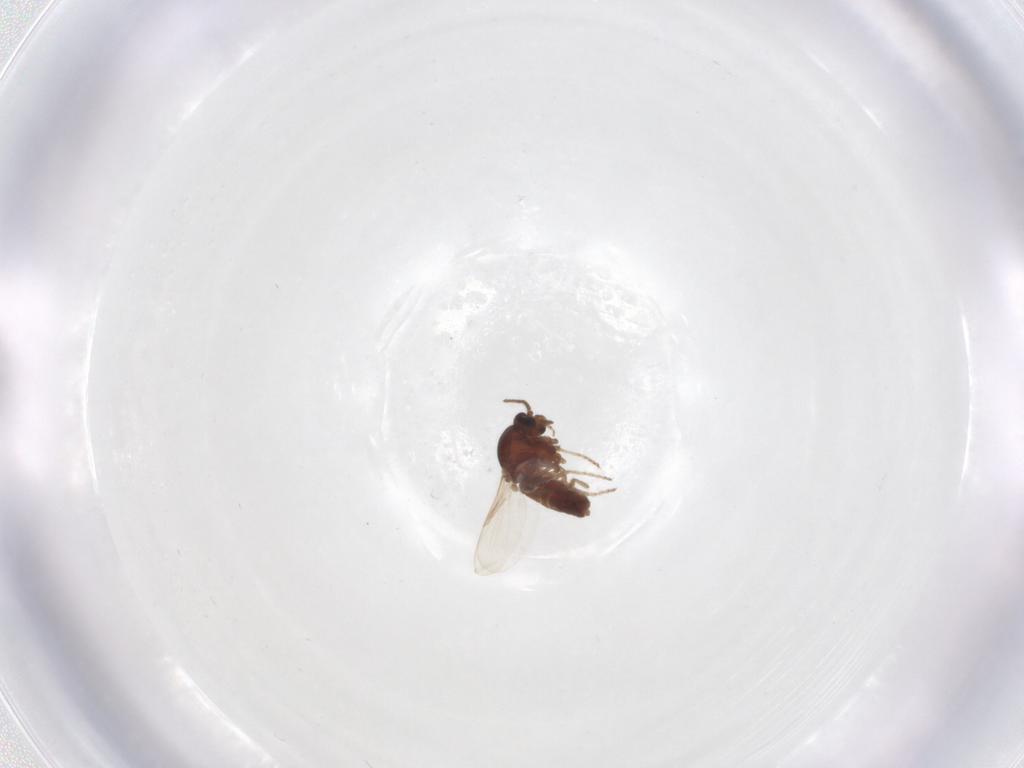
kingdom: Animalia
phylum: Arthropoda
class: Insecta
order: Diptera
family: Ceratopogonidae
